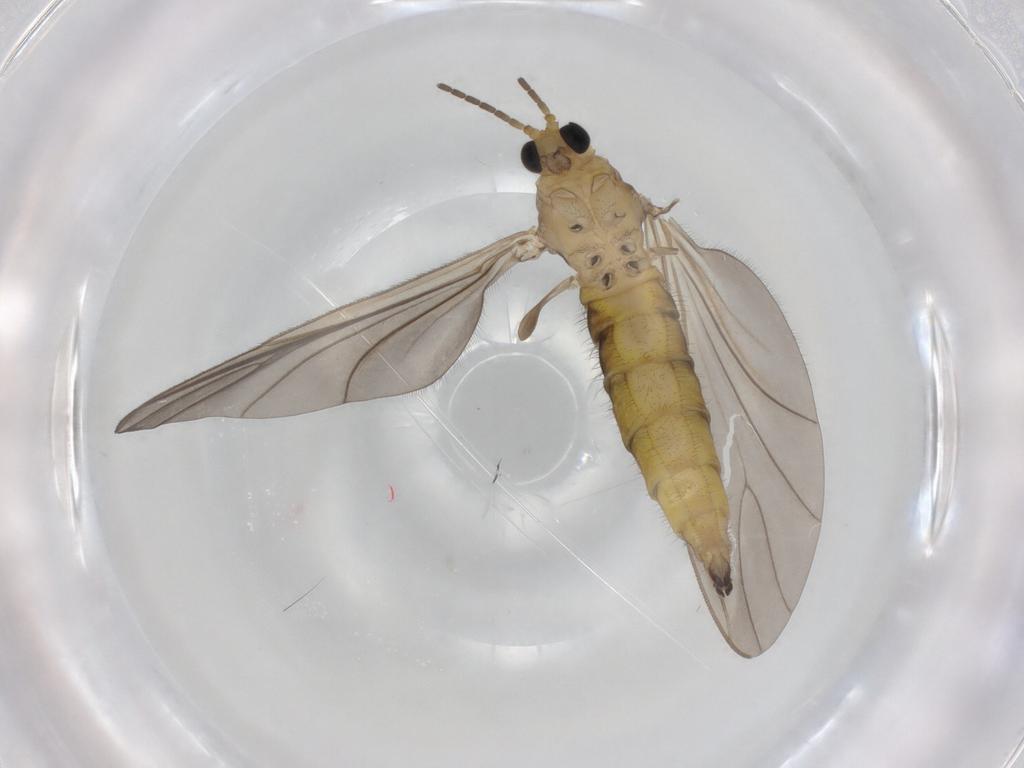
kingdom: Animalia
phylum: Arthropoda
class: Insecta
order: Diptera
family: Sciaridae
